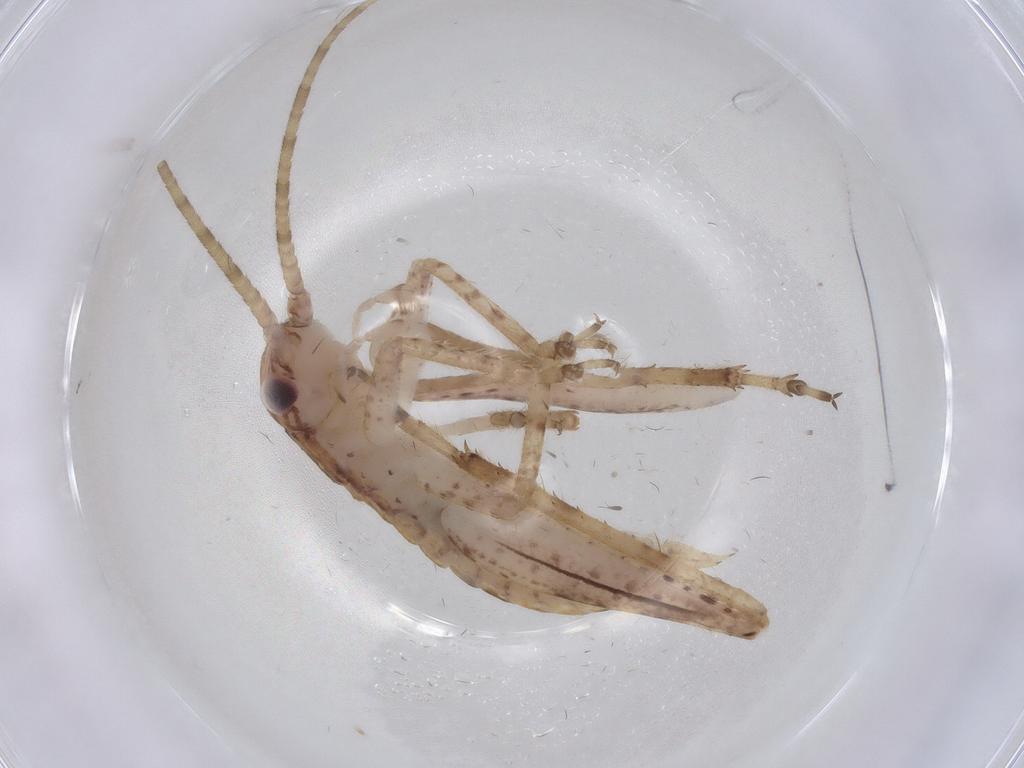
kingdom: Animalia
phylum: Arthropoda
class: Insecta
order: Orthoptera
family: Gryllidae
